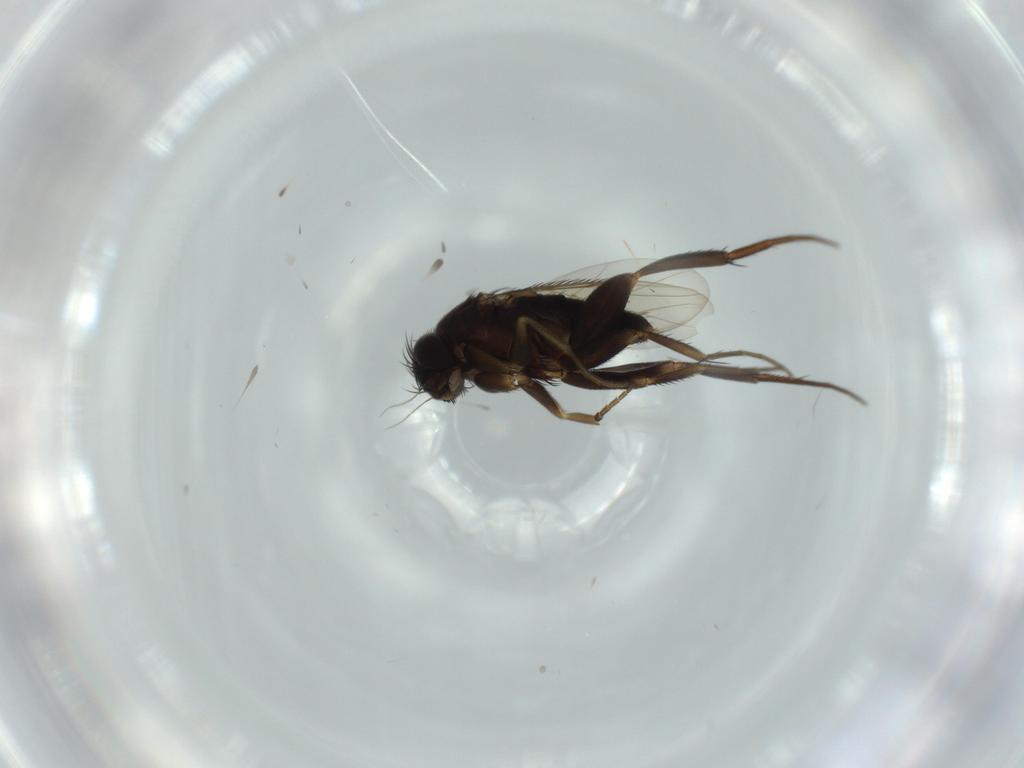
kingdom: Animalia
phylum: Arthropoda
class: Insecta
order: Diptera
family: Phoridae
